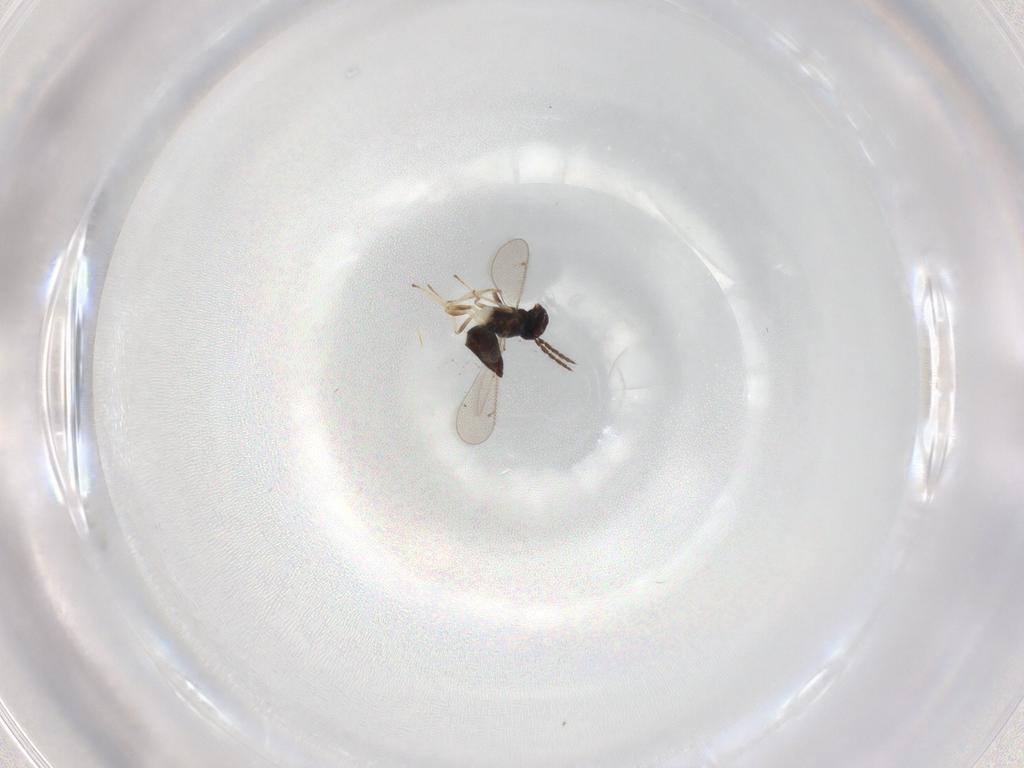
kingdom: Animalia
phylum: Arthropoda
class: Insecta
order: Hymenoptera
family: Eulophidae
